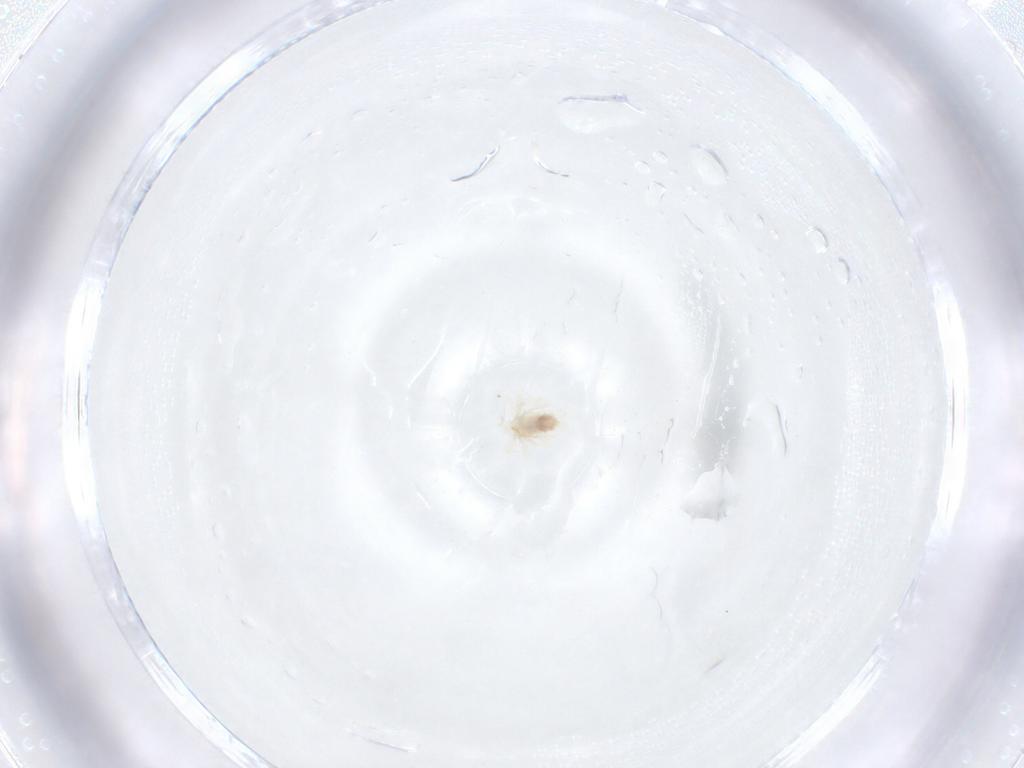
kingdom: Animalia
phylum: Arthropoda
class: Arachnida
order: Trombidiformes
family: Anystidae
